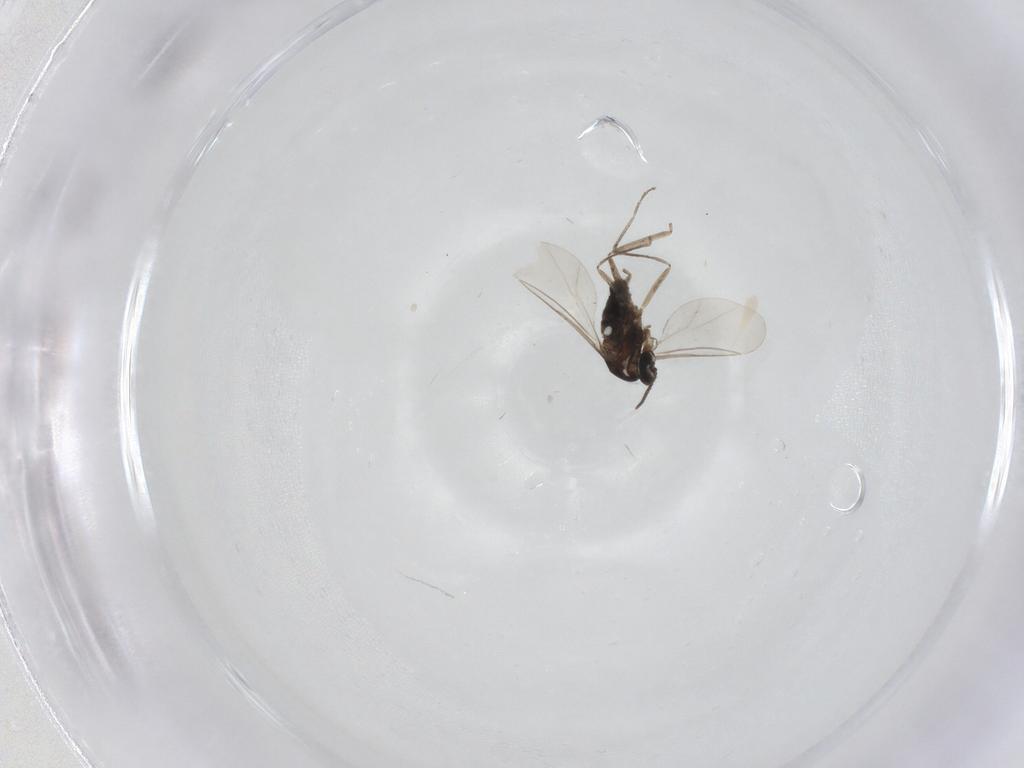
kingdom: Animalia
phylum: Arthropoda
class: Insecta
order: Diptera
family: Cecidomyiidae
